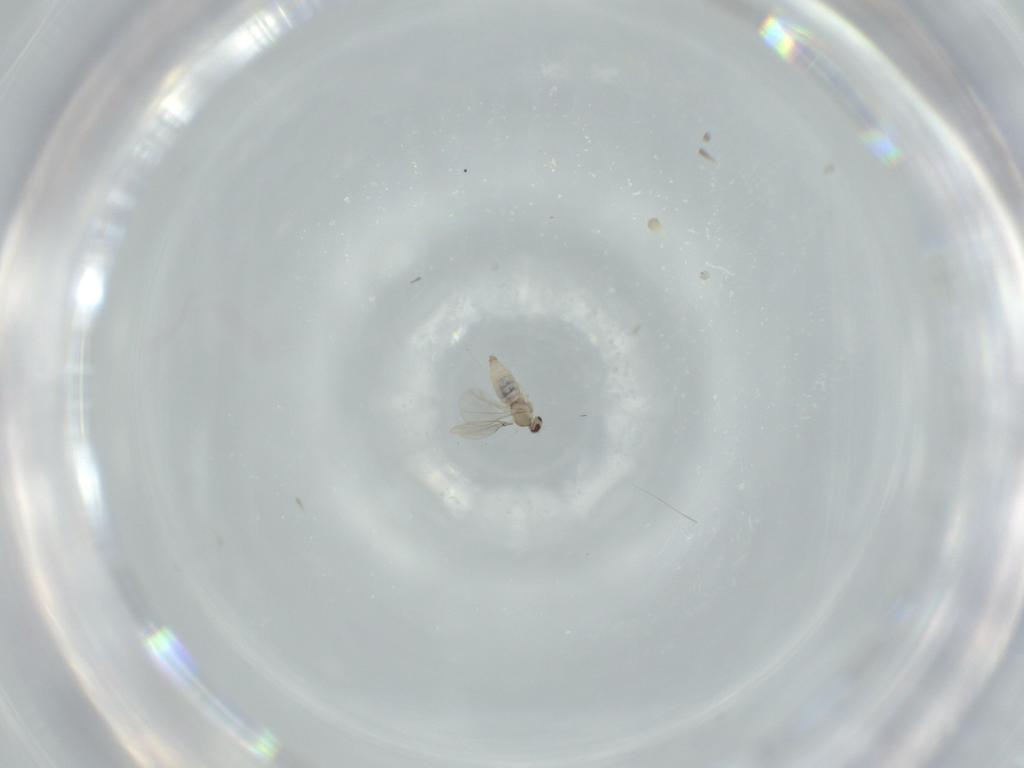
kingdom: Animalia
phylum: Arthropoda
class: Insecta
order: Diptera
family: Cecidomyiidae
